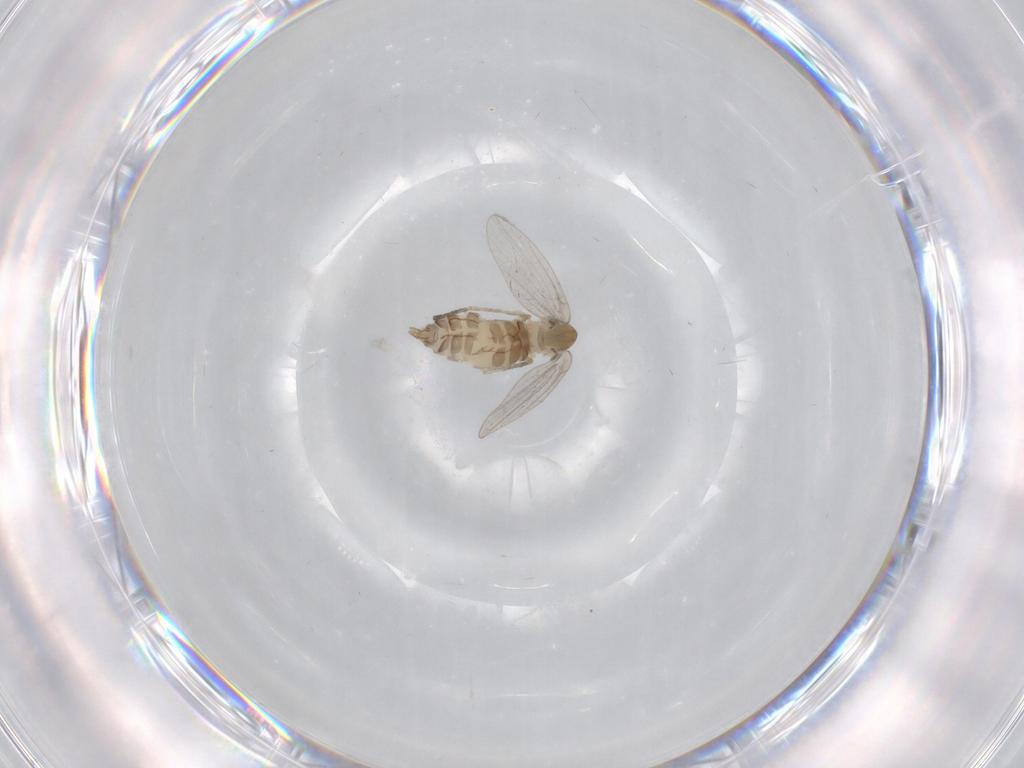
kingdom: Animalia
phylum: Arthropoda
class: Insecta
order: Diptera
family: Psychodidae
